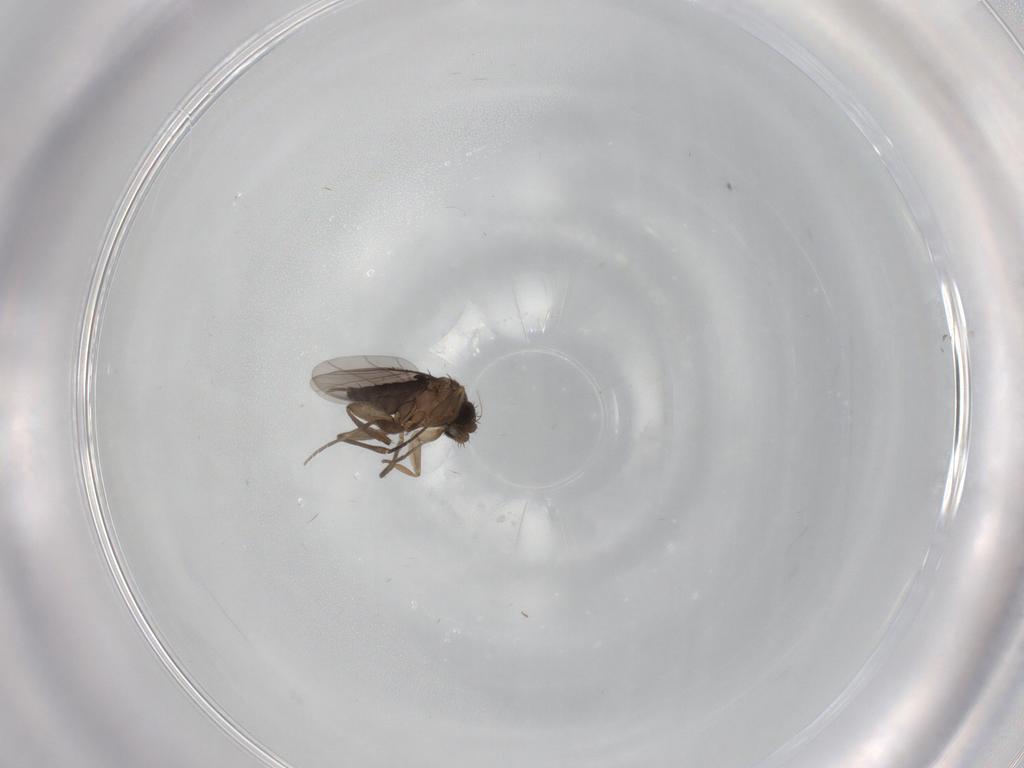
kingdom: Animalia
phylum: Arthropoda
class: Insecta
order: Diptera
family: Phoridae
